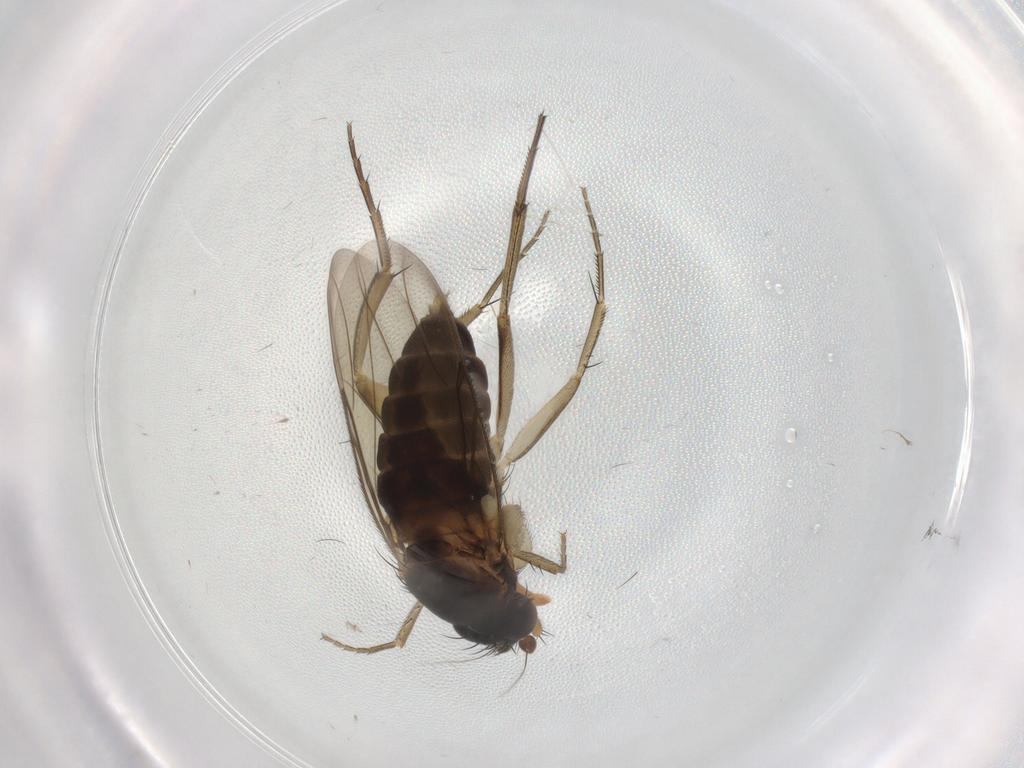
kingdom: Animalia
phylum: Arthropoda
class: Insecta
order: Diptera
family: Phoridae
